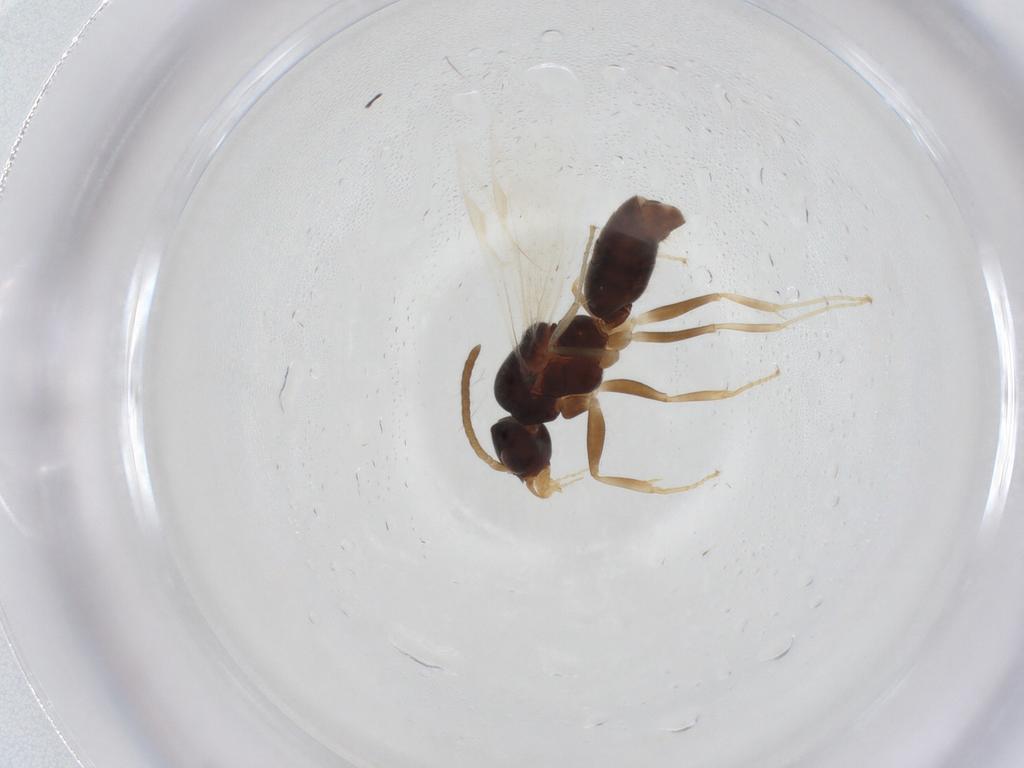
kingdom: Animalia
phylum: Arthropoda
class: Insecta
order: Hymenoptera
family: Formicidae
